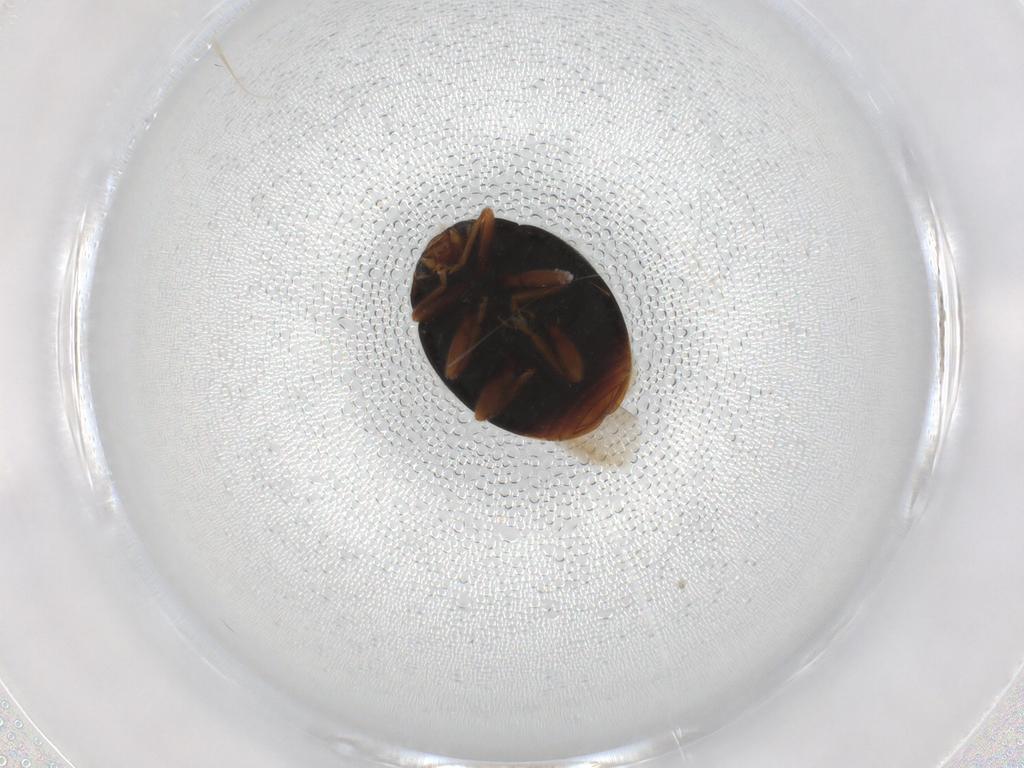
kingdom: Animalia
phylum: Arthropoda
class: Insecta
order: Coleoptera
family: Coccinellidae
